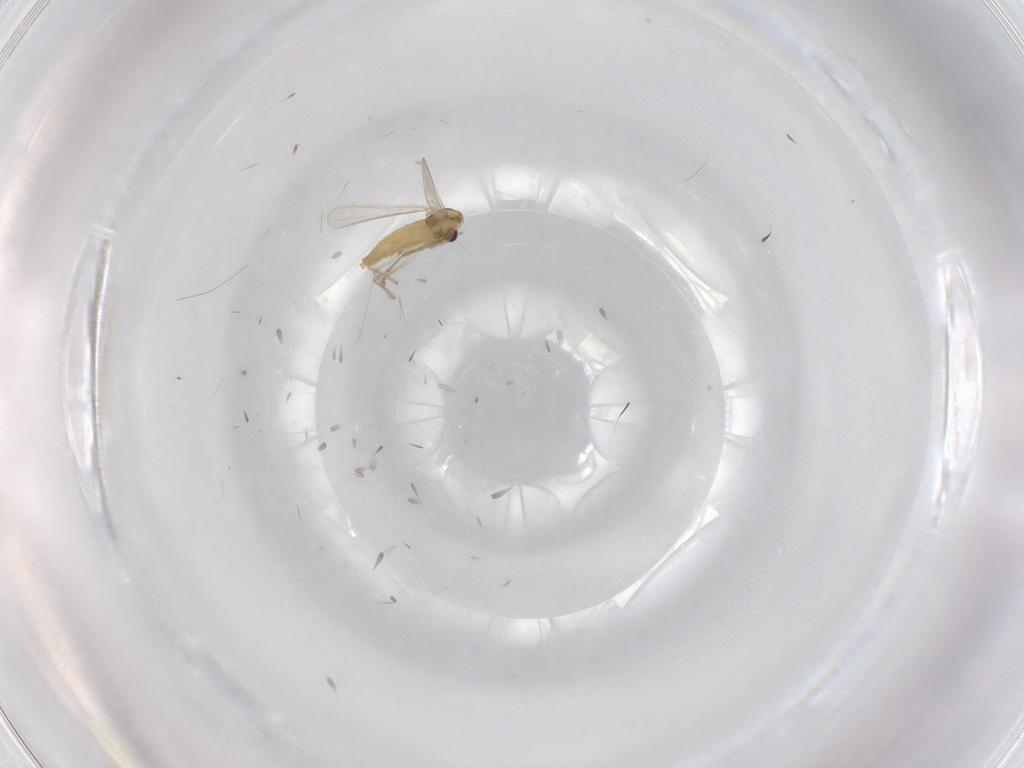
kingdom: Animalia
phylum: Arthropoda
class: Insecta
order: Diptera
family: Chironomidae
